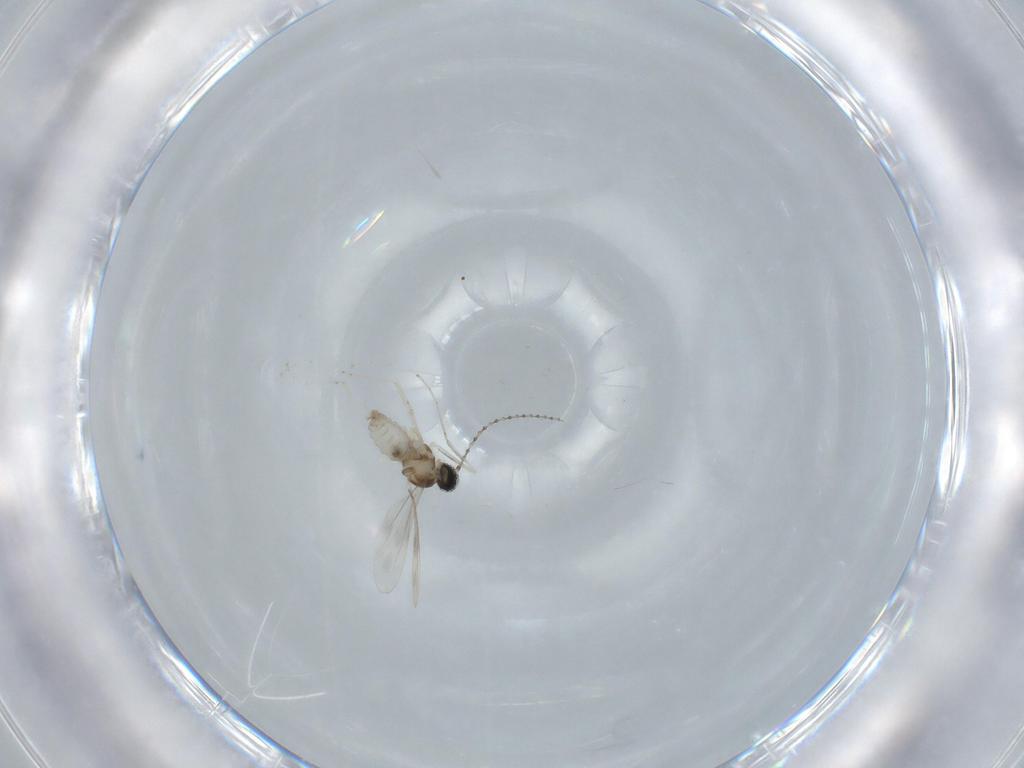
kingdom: Animalia
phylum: Arthropoda
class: Insecta
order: Diptera
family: Cecidomyiidae
